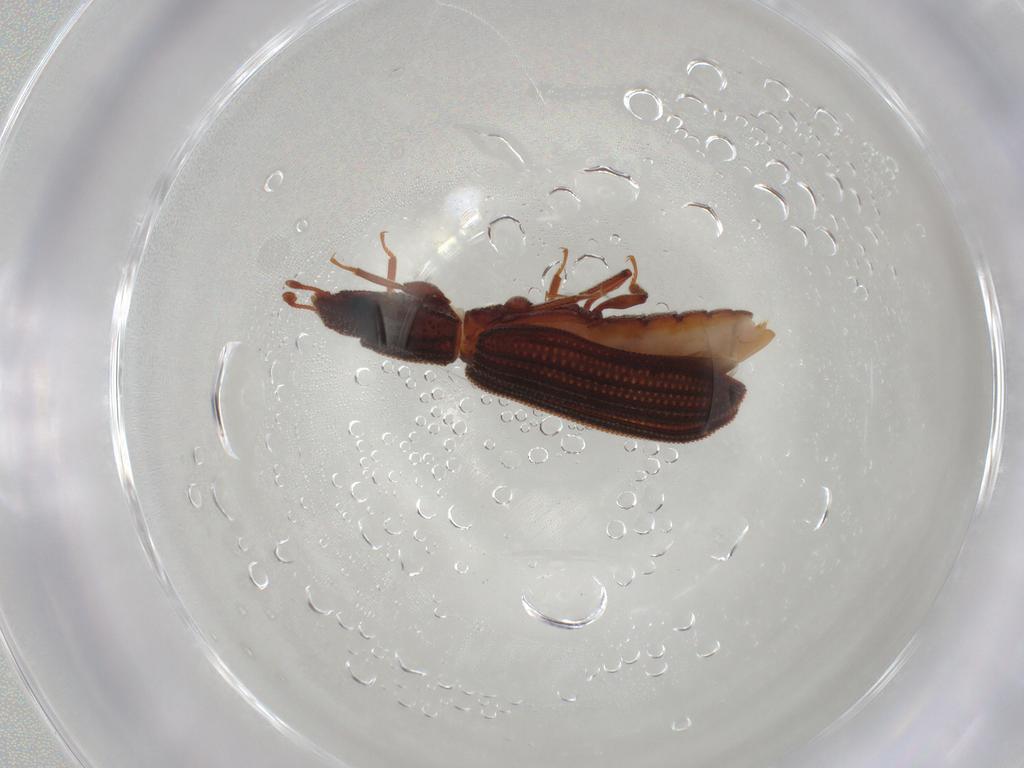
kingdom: Animalia
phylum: Arthropoda
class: Insecta
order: Coleoptera
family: Zopheridae
